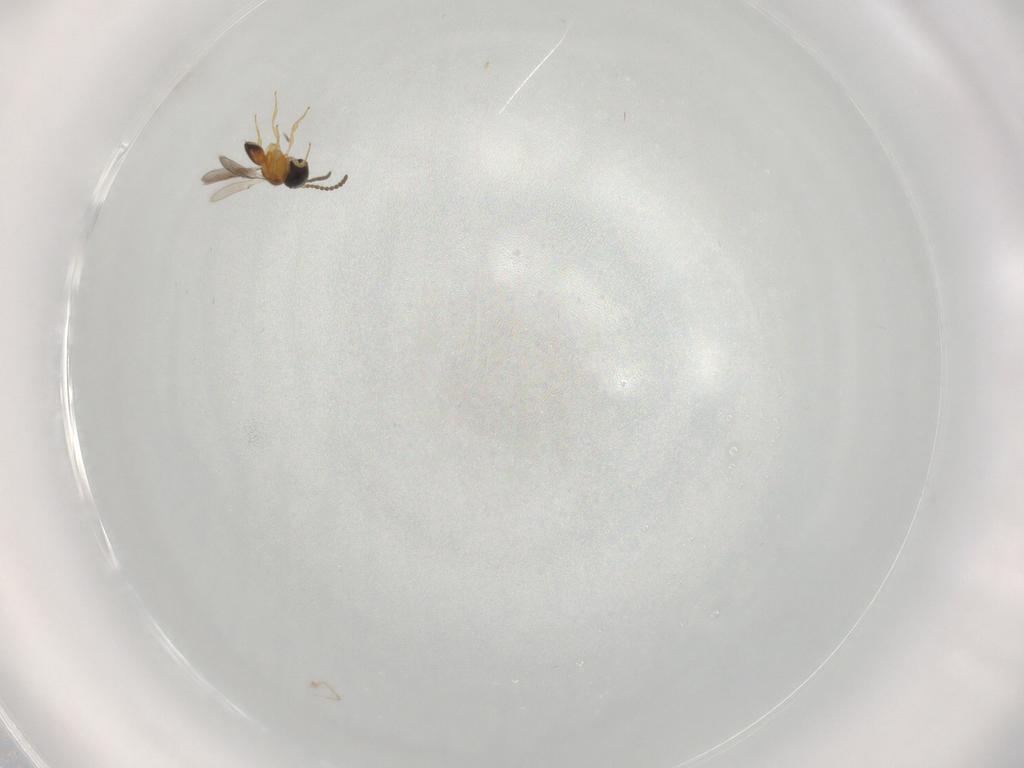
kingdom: Animalia
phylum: Arthropoda
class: Insecta
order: Hymenoptera
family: Scelionidae
